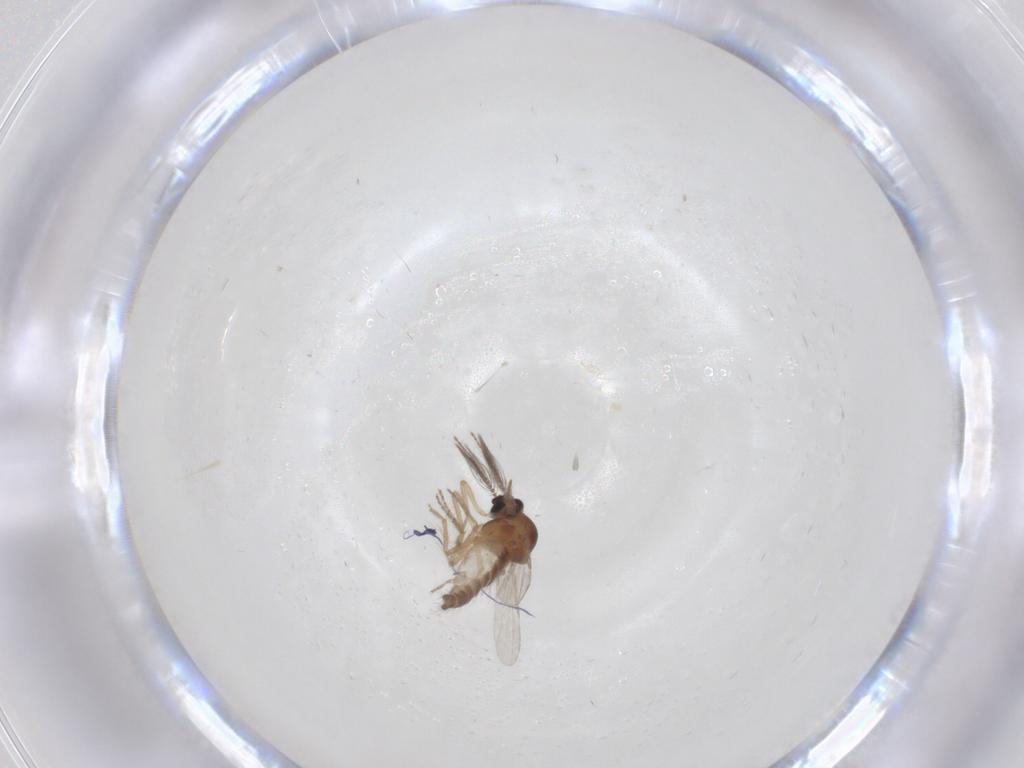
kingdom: Animalia
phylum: Arthropoda
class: Insecta
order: Diptera
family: Ceratopogonidae
